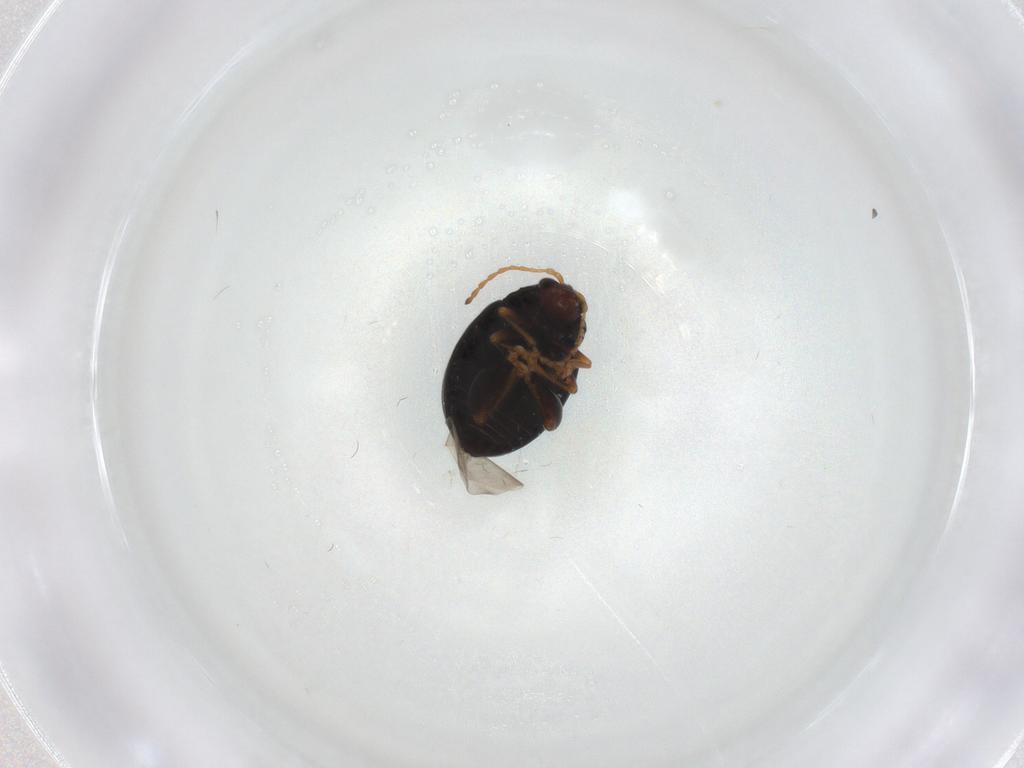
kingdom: Animalia
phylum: Arthropoda
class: Insecta
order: Coleoptera
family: Chrysomelidae
